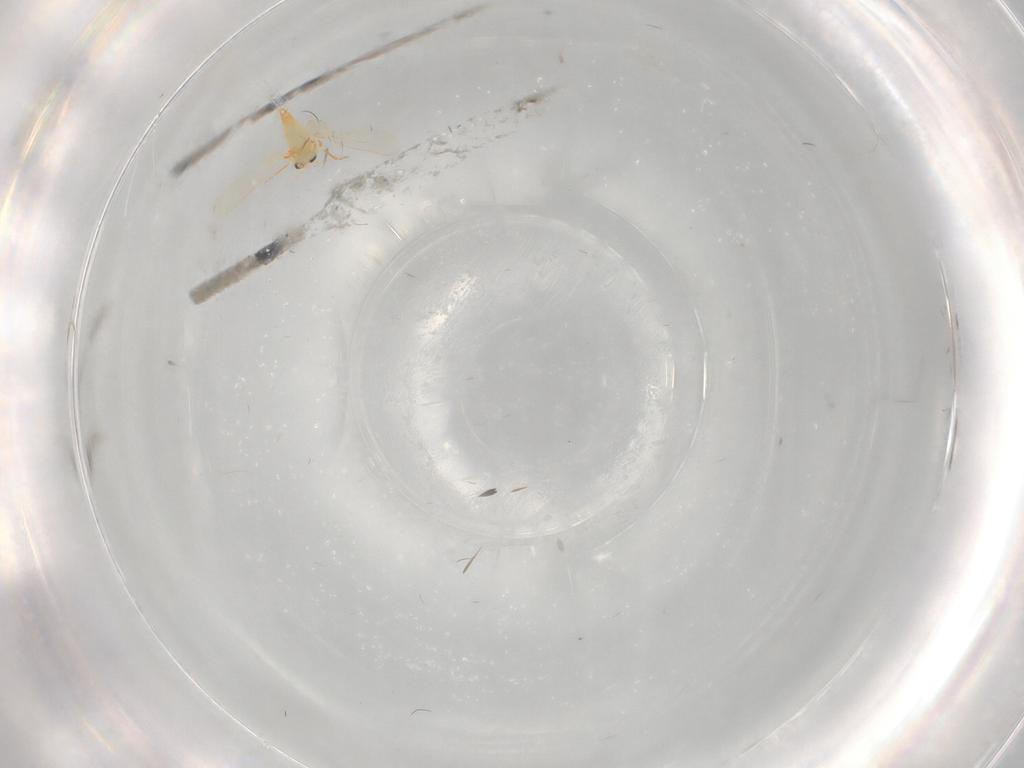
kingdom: Animalia
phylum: Arthropoda
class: Insecta
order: Hemiptera
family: Aleyrodidae
